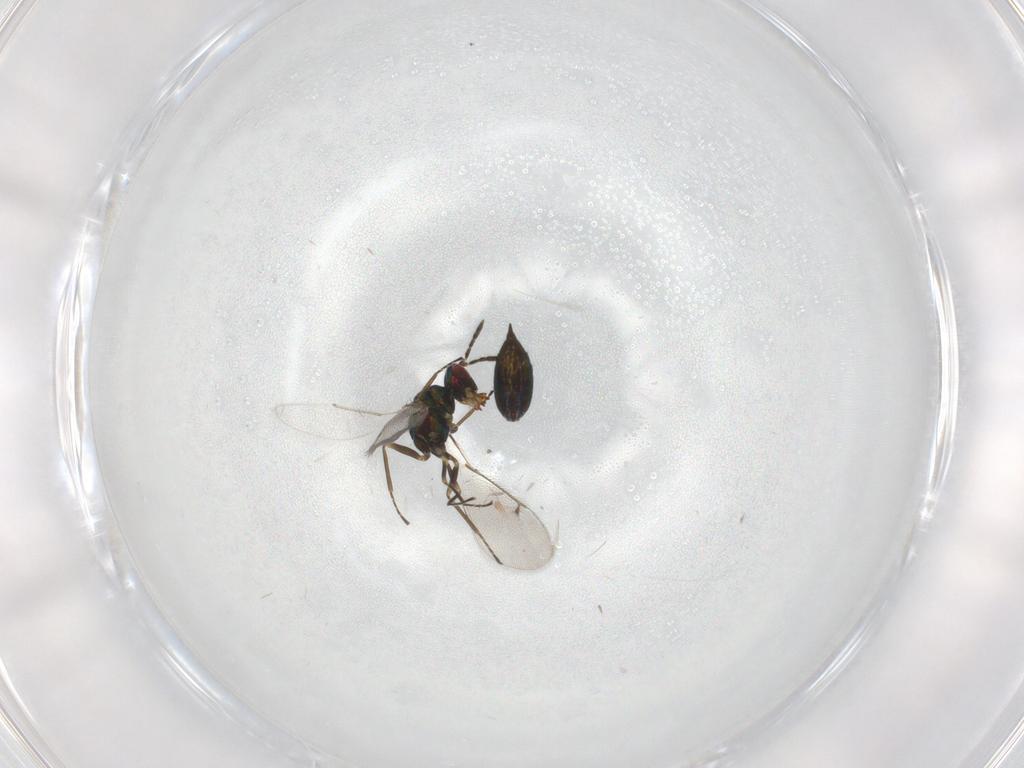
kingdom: Animalia
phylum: Arthropoda
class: Insecta
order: Hymenoptera
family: Eulophidae
